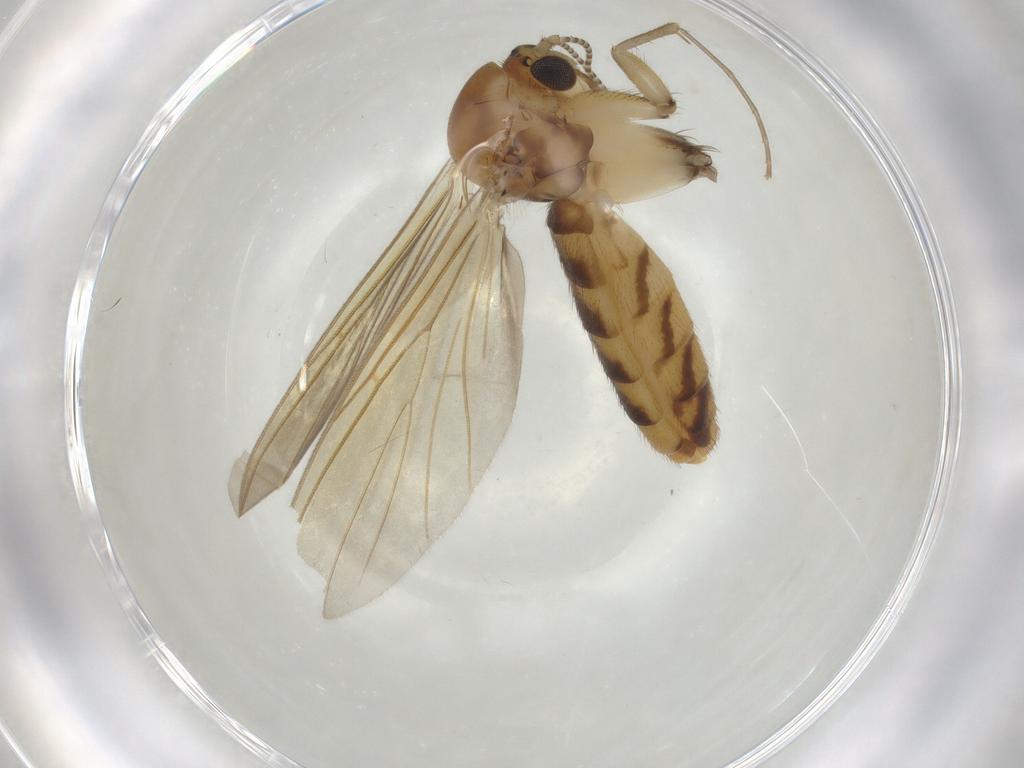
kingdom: Animalia
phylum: Arthropoda
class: Insecta
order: Diptera
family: Mycetophilidae
